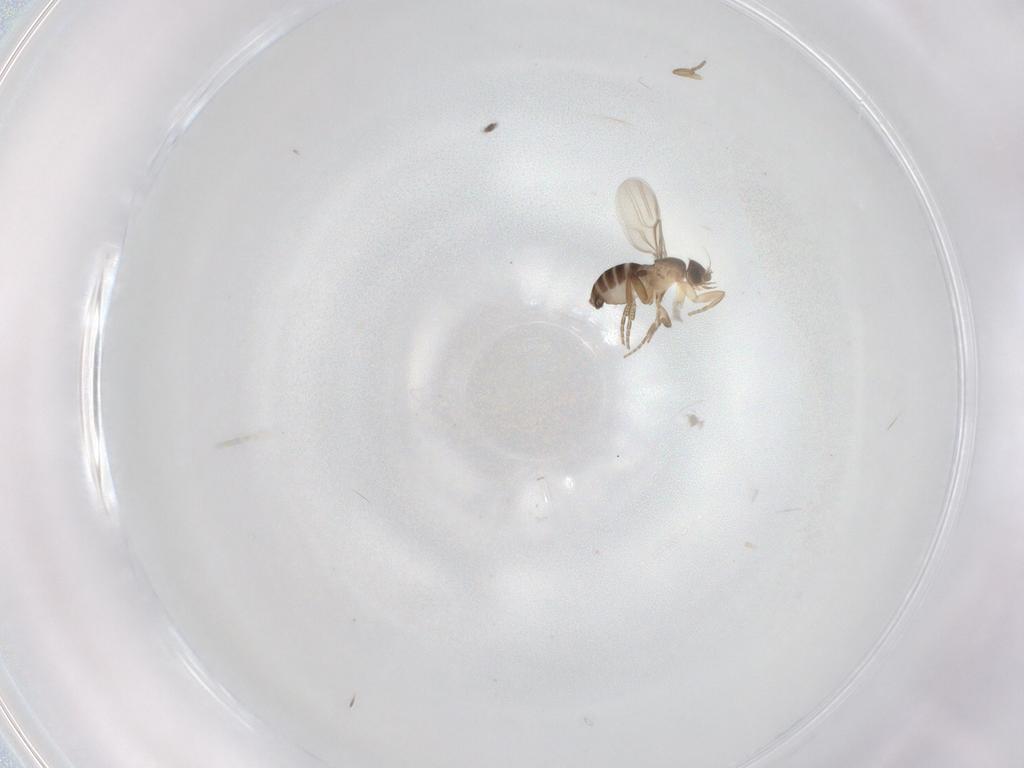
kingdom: Animalia
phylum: Arthropoda
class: Insecta
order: Diptera
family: Phoridae
